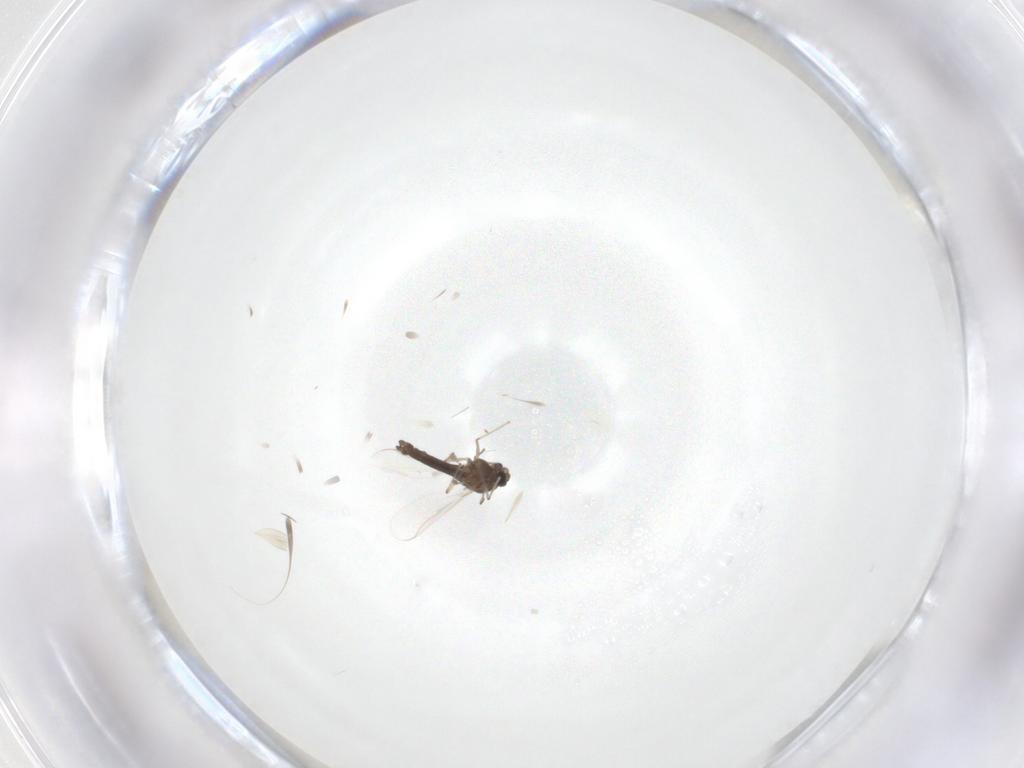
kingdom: Animalia
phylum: Arthropoda
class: Insecta
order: Diptera
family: Chironomidae
